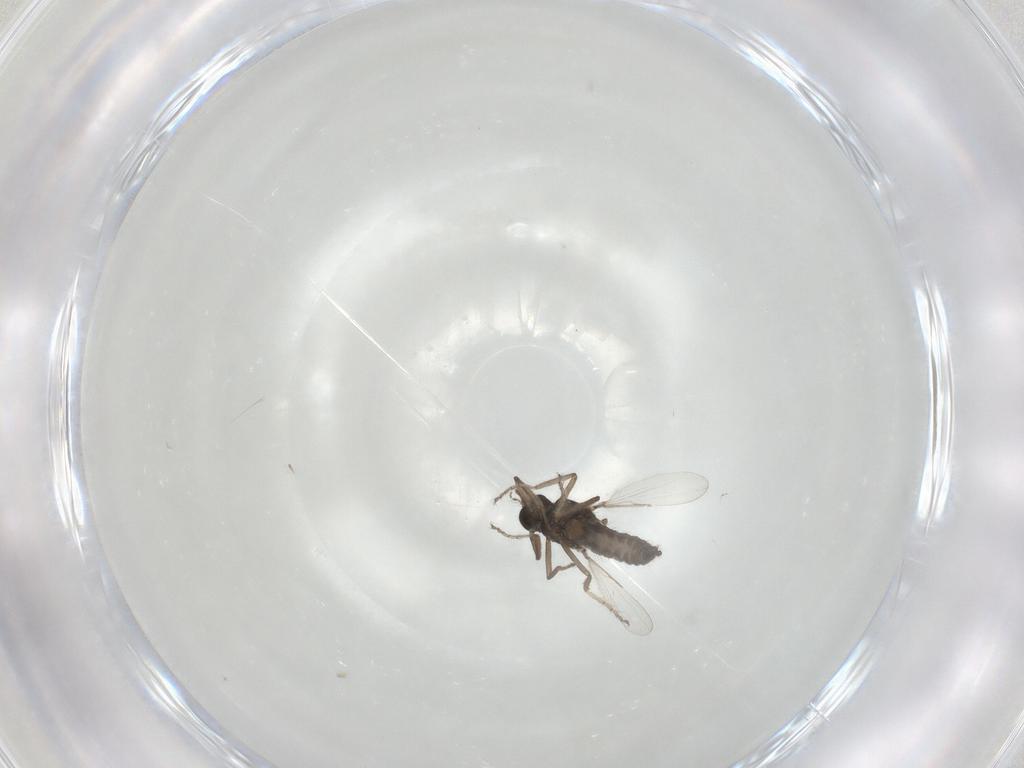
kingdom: Animalia
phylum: Arthropoda
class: Insecta
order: Diptera
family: Ceratopogonidae
